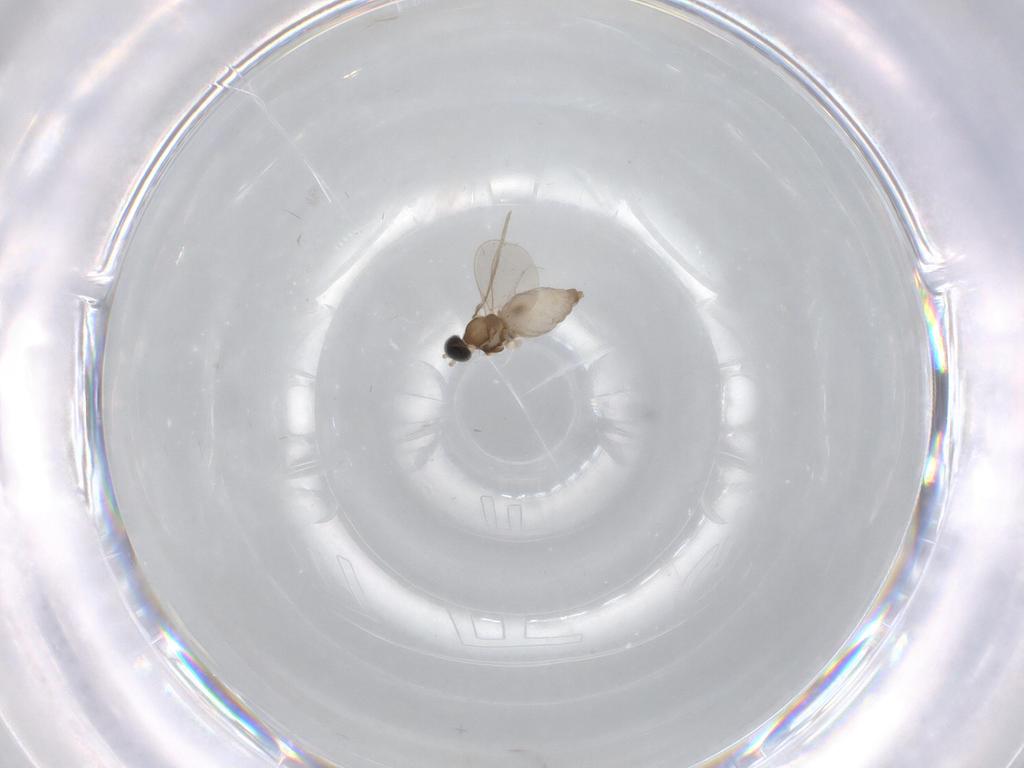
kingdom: Animalia
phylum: Arthropoda
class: Insecta
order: Diptera
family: Cecidomyiidae
